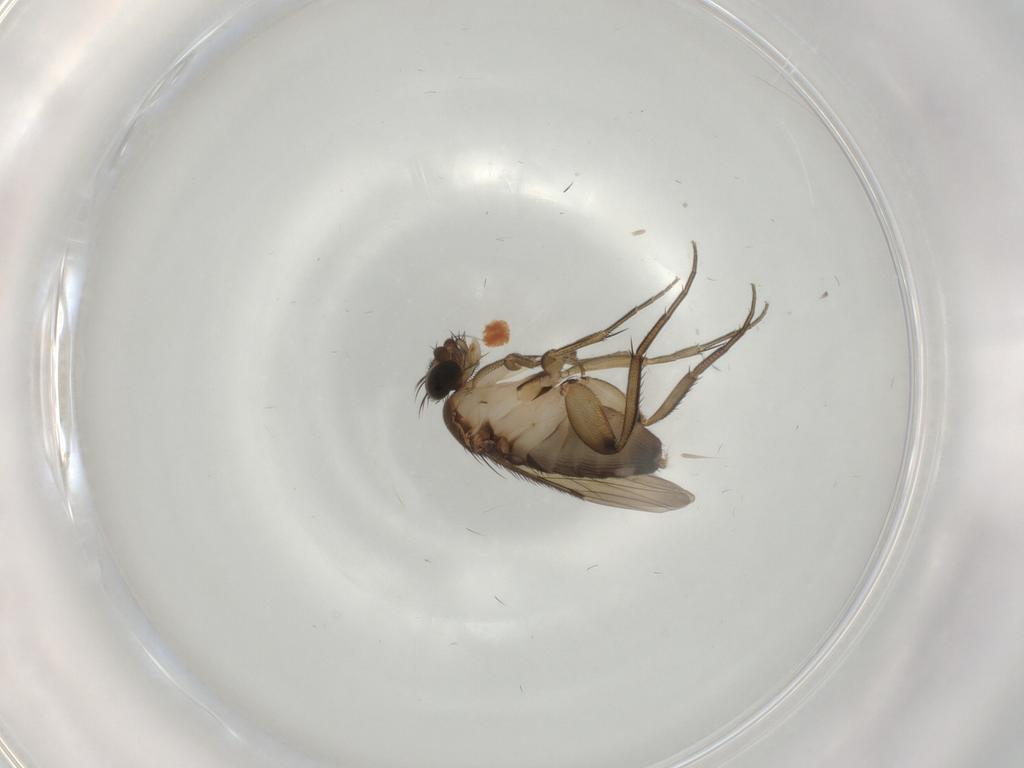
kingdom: Animalia
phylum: Arthropoda
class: Insecta
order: Diptera
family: Phoridae
